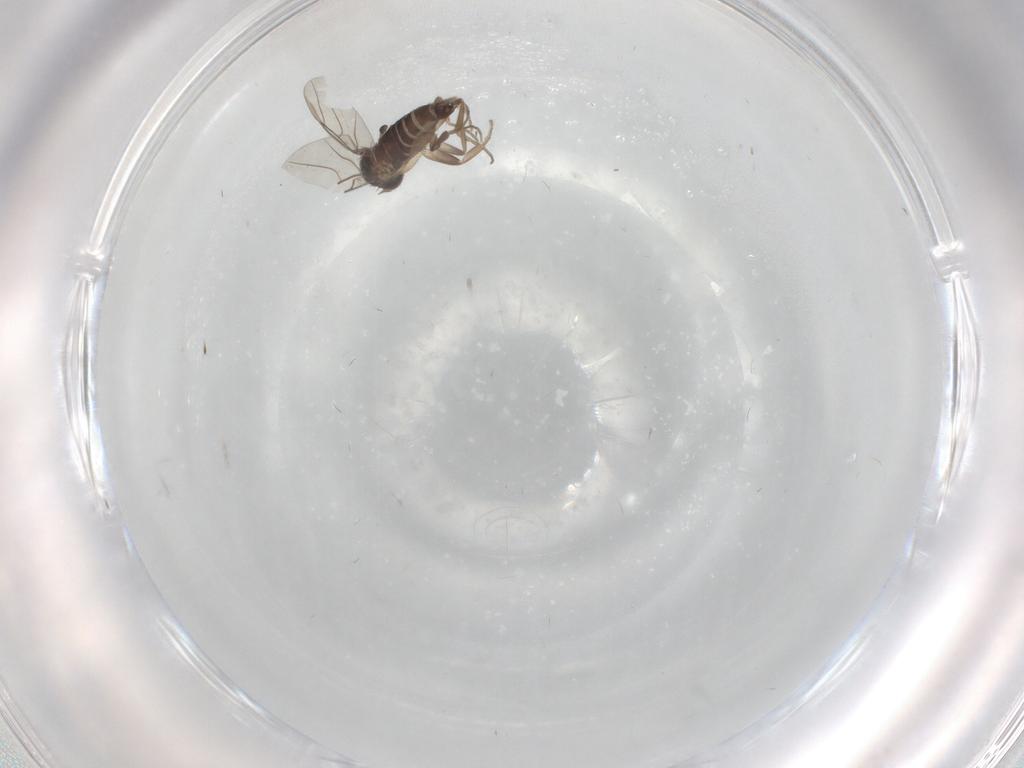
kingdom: Animalia
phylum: Arthropoda
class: Insecta
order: Diptera
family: Phoridae
